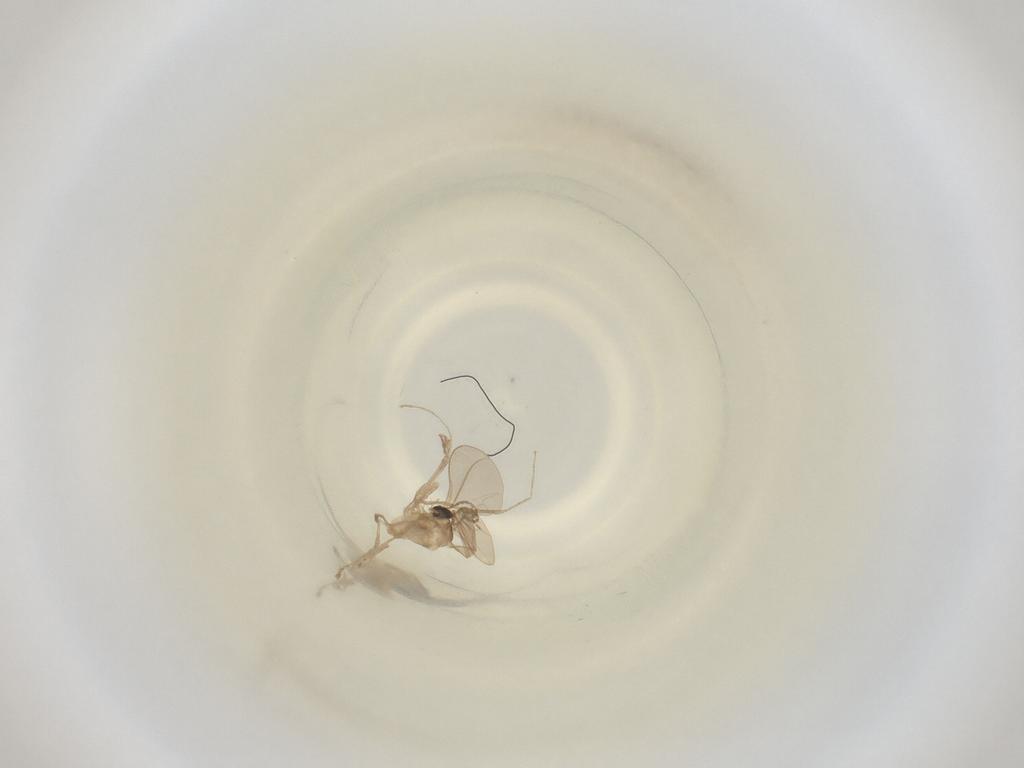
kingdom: Animalia
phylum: Arthropoda
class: Insecta
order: Diptera
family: Cecidomyiidae
